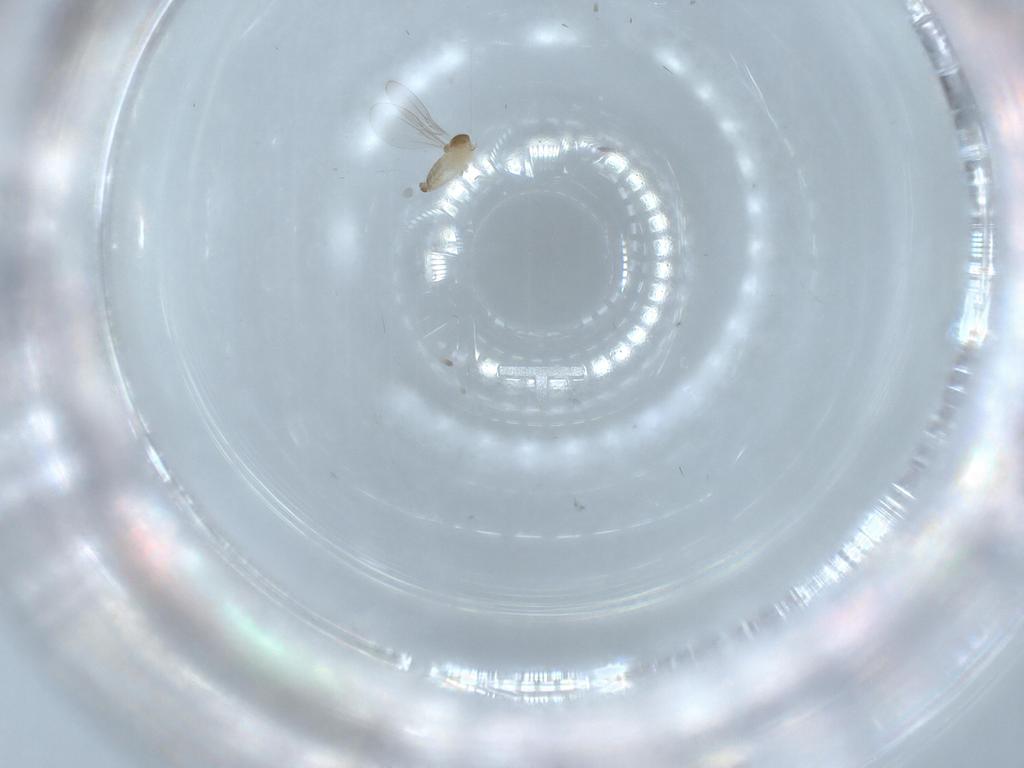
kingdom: Animalia
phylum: Arthropoda
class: Insecta
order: Diptera
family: Cecidomyiidae
